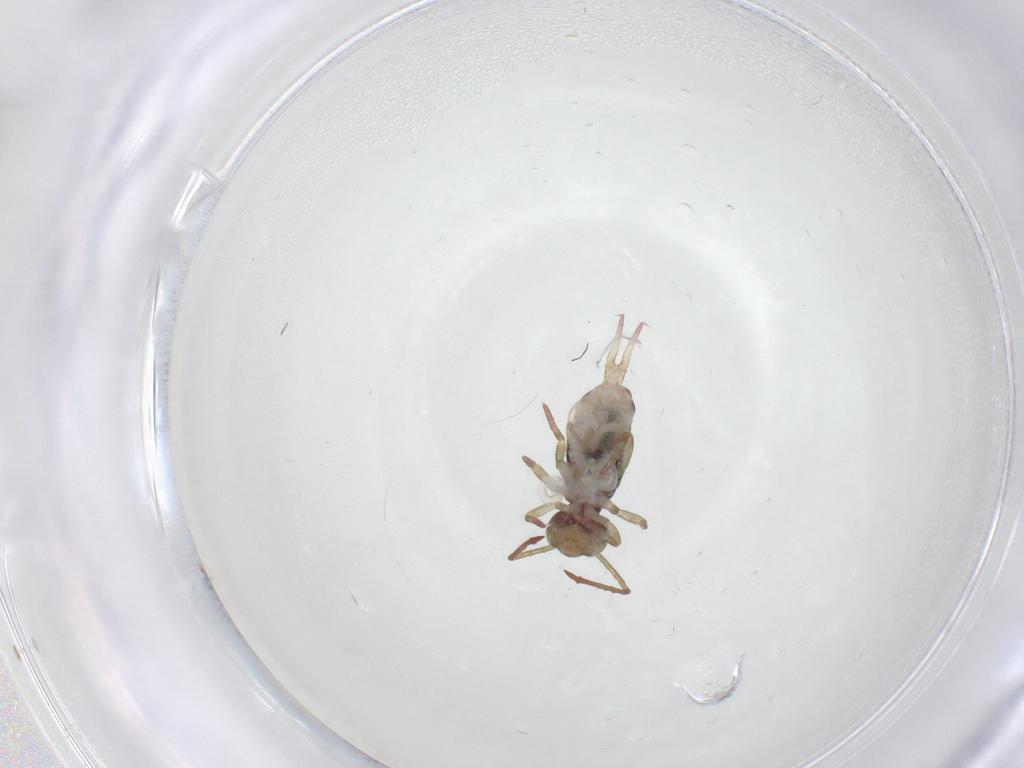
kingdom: Animalia
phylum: Arthropoda
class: Collembola
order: Symphypleona
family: Dicyrtomidae
